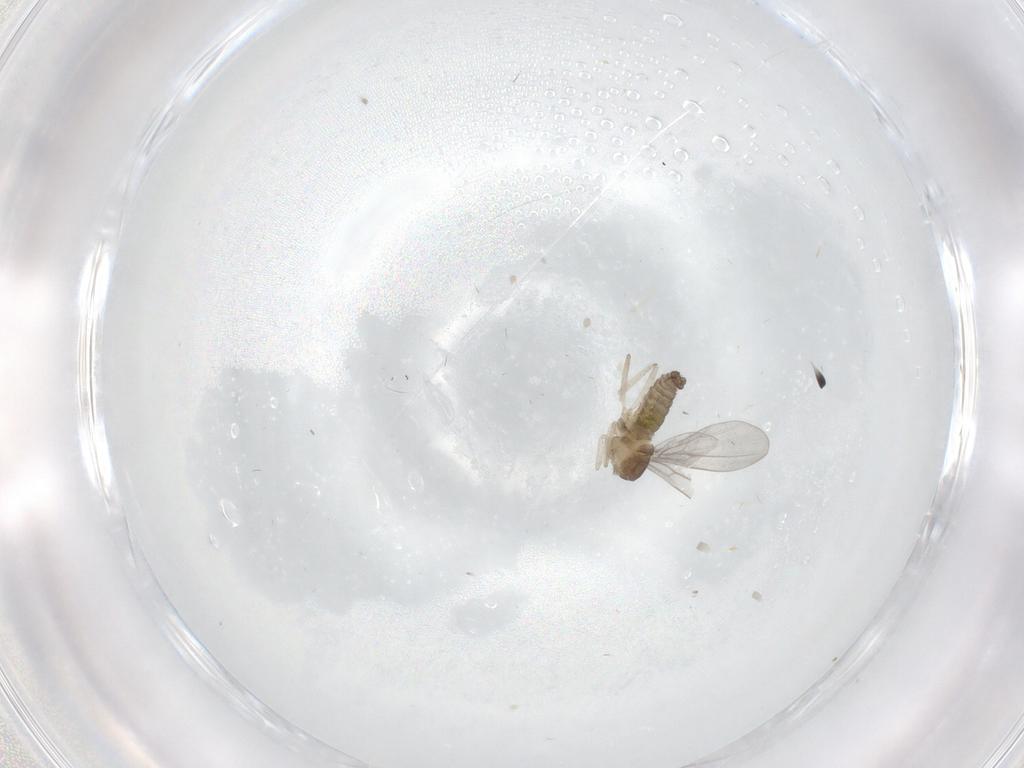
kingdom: Animalia
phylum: Arthropoda
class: Insecta
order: Diptera
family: Cecidomyiidae
